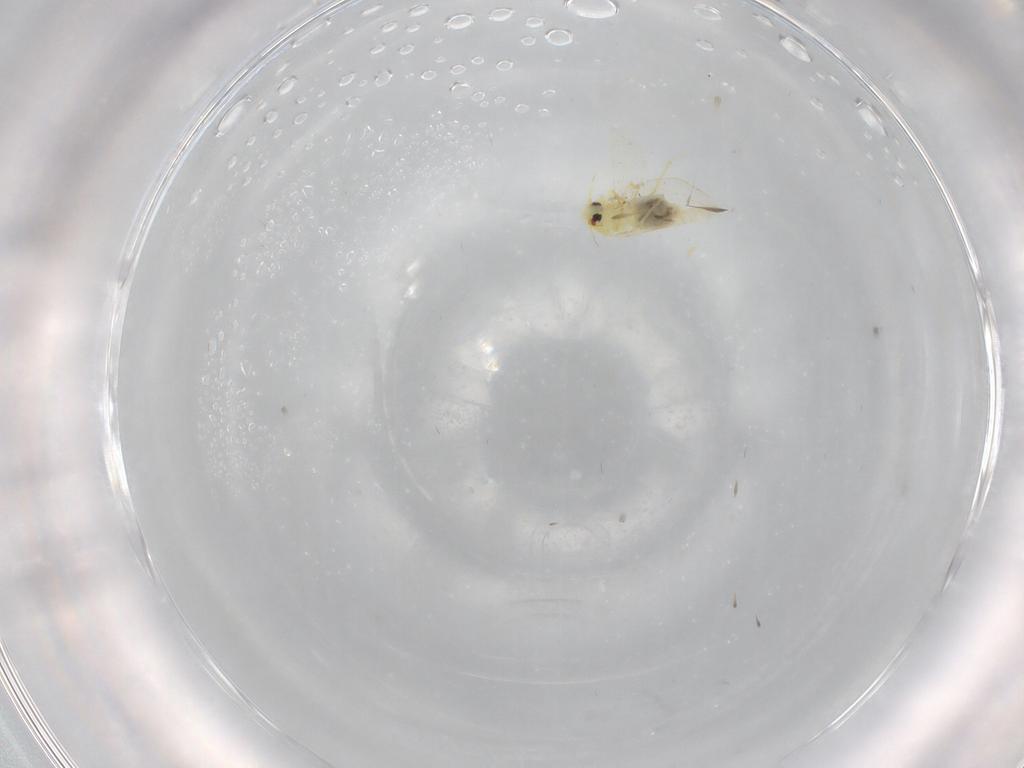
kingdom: Animalia
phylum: Arthropoda
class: Insecta
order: Hemiptera
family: Aleyrodidae
